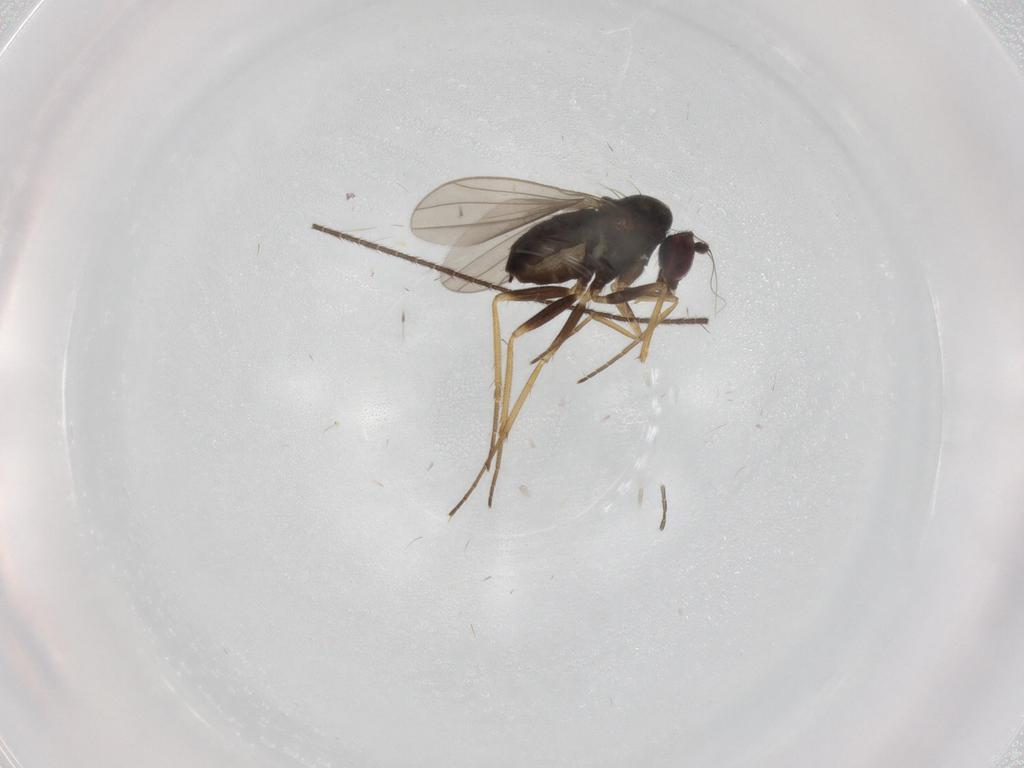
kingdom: Animalia
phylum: Arthropoda
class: Insecta
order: Diptera
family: Dolichopodidae
